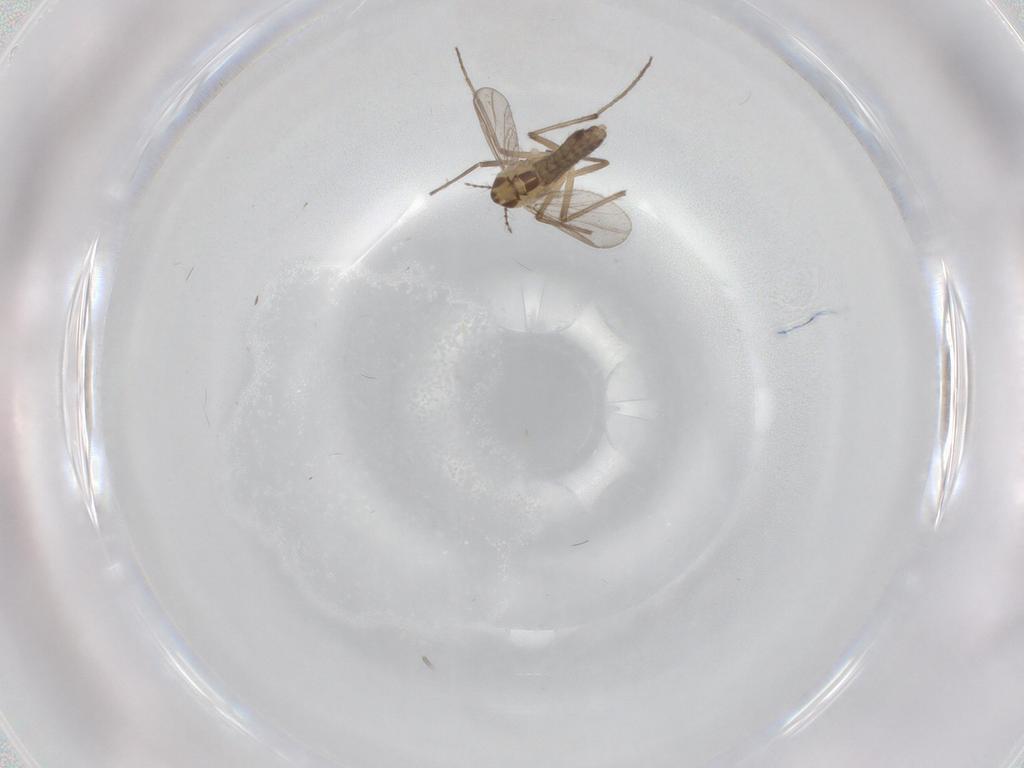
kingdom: Animalia
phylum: Arthropoda
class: Insecta
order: Diptera
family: Chironomidae
